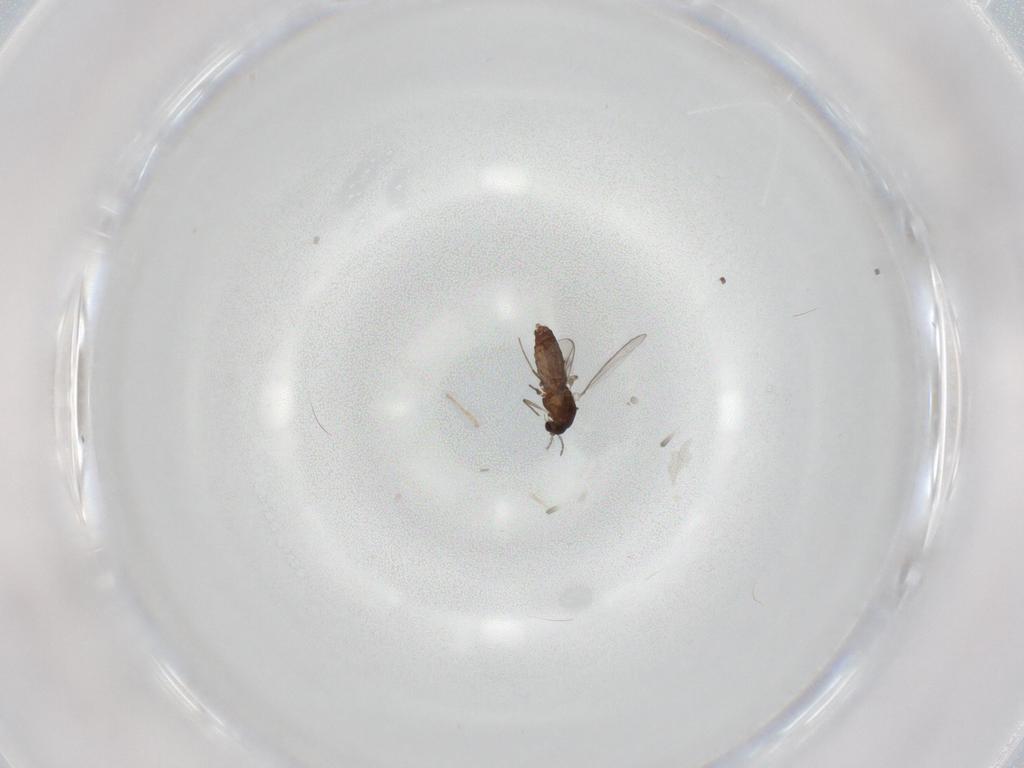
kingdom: Animalia
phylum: Arthropoda
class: Insecta
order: Diptera
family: Chironomidae
